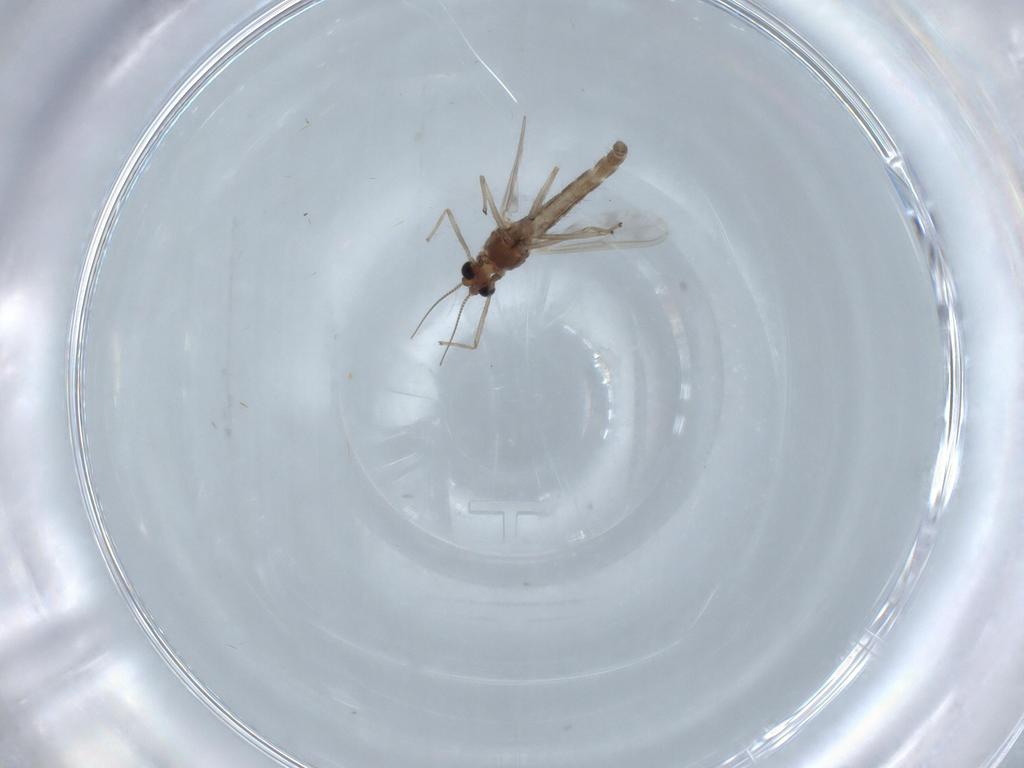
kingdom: Animalia
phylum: Arthropoda
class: Insecta
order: Diptera
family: Chironomidae
